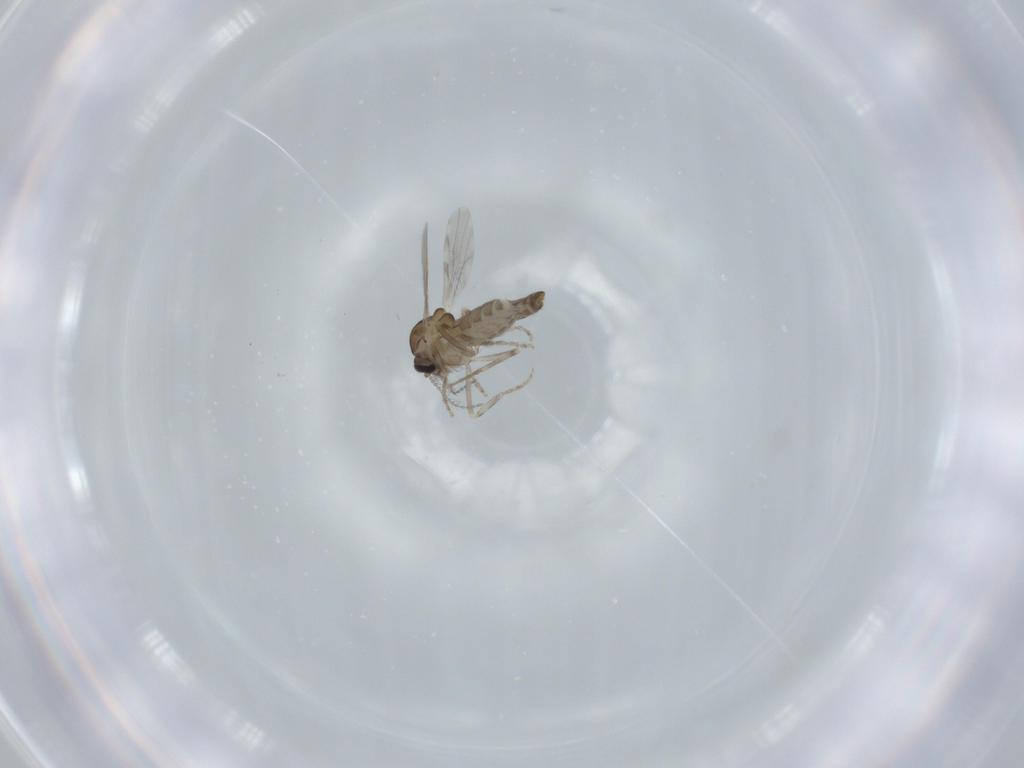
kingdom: Animalia
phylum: Arthropoda
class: Insecta
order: Diptera
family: Ceratopogonidae
